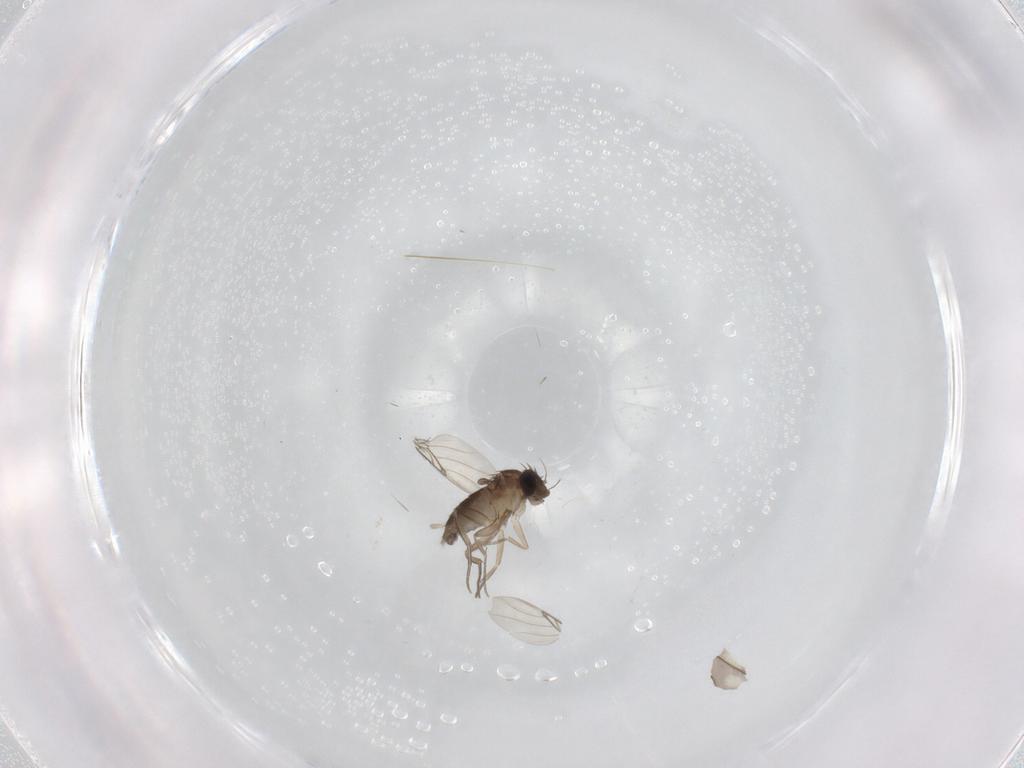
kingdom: Animalia
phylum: Arthropoda
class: Insecta
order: Diptera
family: Phoridae
